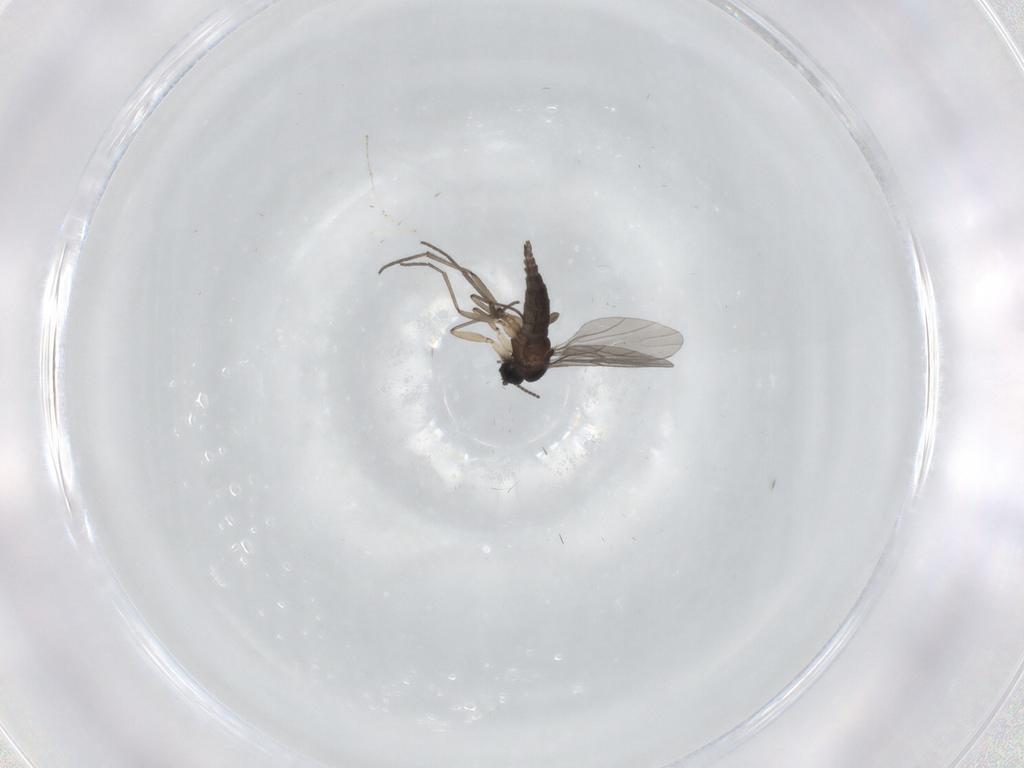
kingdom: Animalia
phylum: Arthropoda
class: Insecta
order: Diptera
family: Sciaridae
